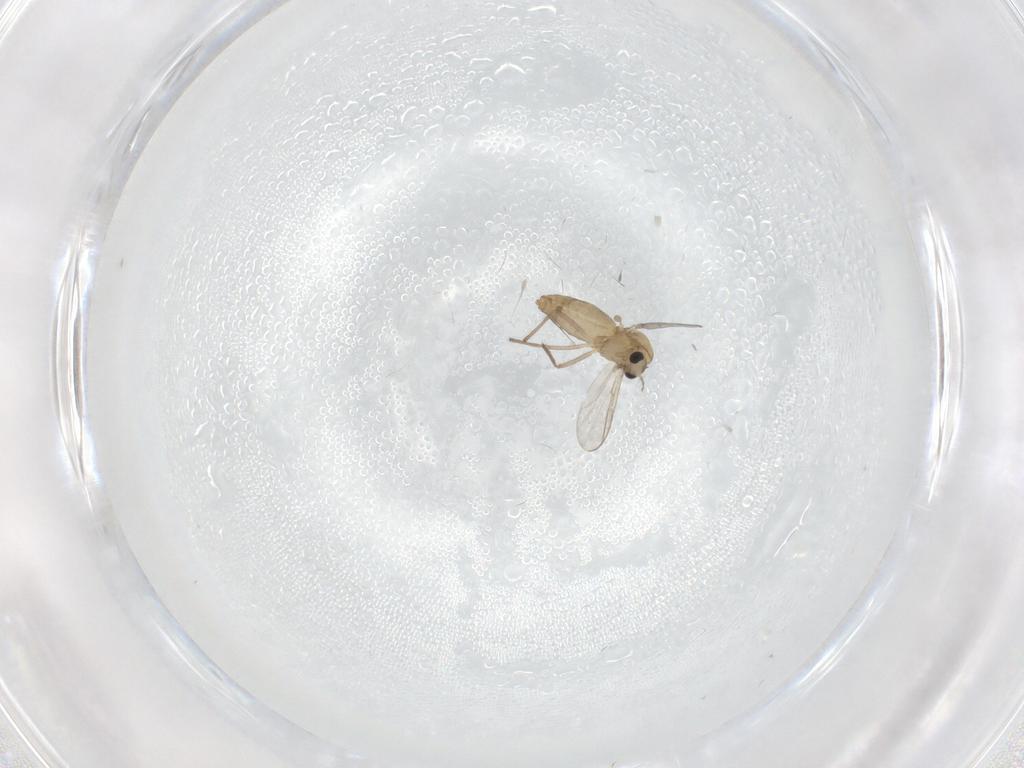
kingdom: Animalia
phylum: Arthropoda
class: Insecta
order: Diptera
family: Chironomidae
